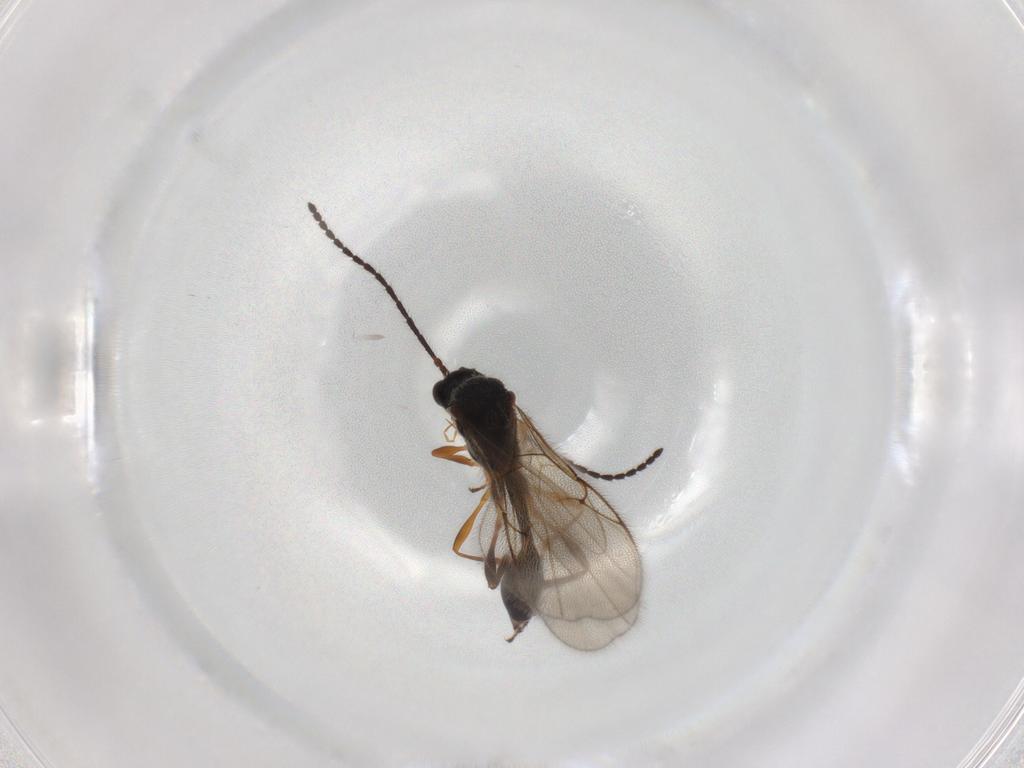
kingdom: Animalia
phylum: Arthropoda
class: Insecta
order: Hymenoptera
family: Diapriidae
